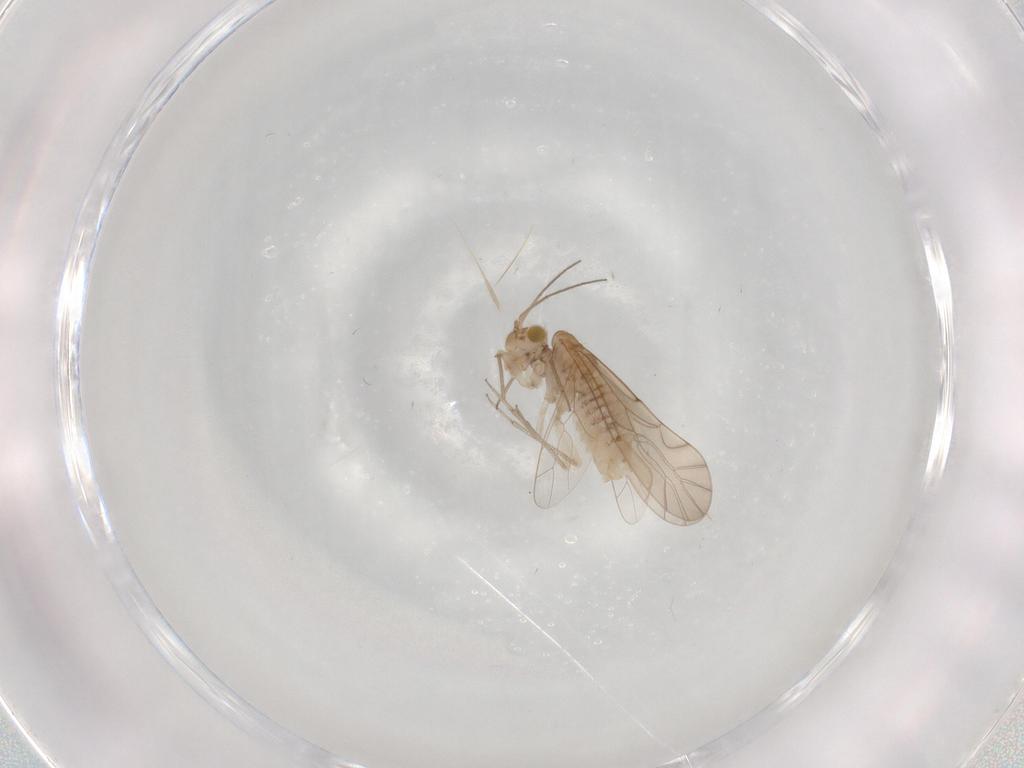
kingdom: Animalia
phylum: Arthropoda
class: Insecta
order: Psocodea
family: Lachesillidae
